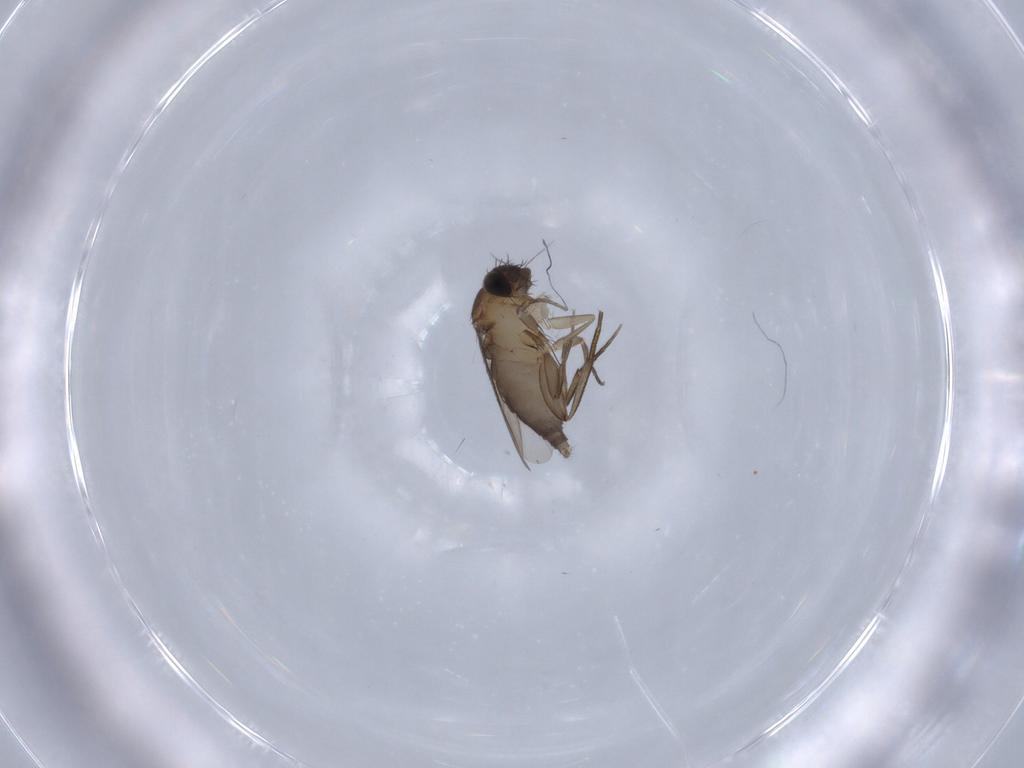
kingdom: Animalia
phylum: Arthropoda
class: Insecta
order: Diptera
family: Phoridae
